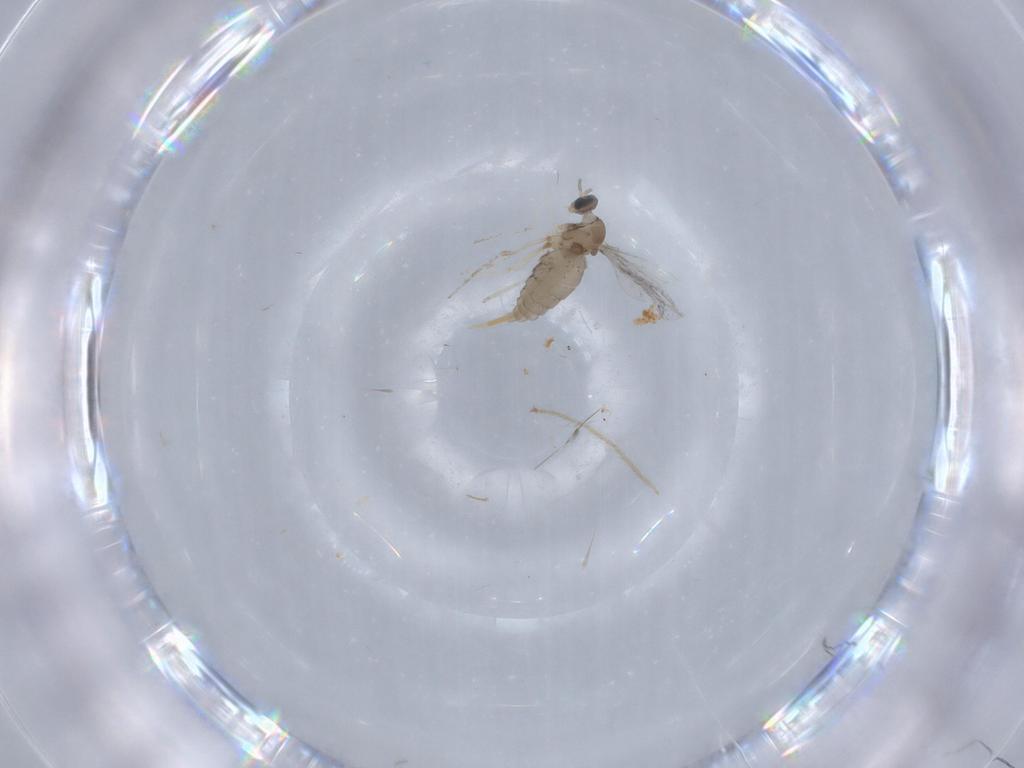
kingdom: Animalia
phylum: Arthropoda
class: Insecta
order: Diptera
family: Cecidomyiidae
